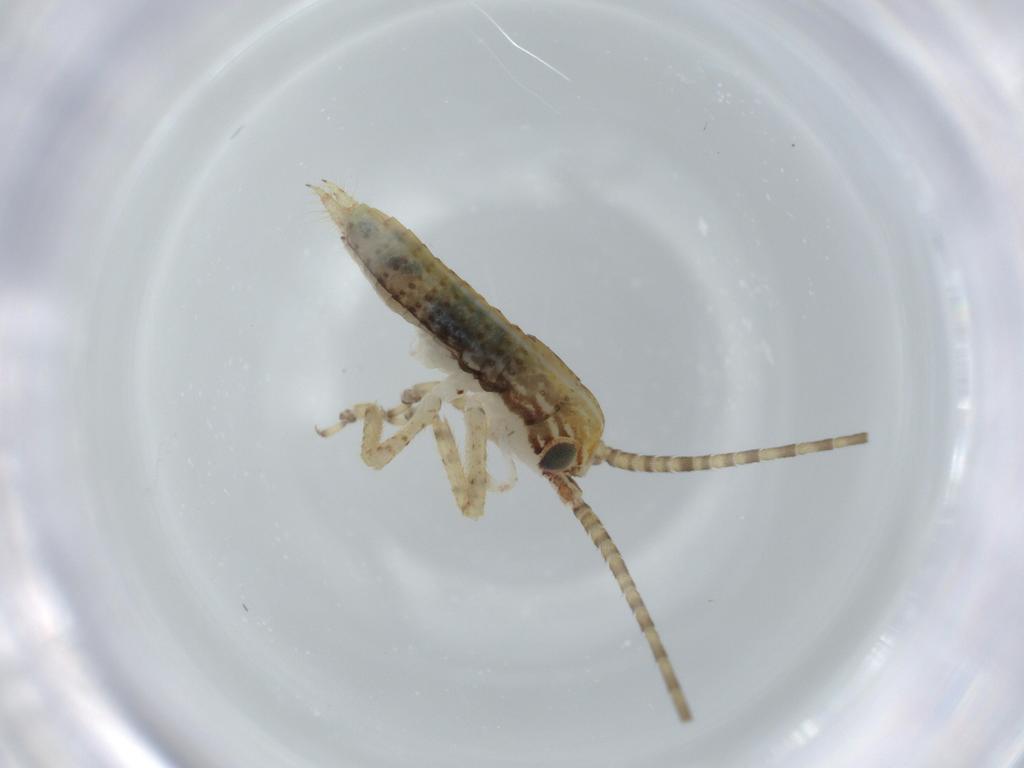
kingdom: Animalia
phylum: Arthropoda
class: Insecta
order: Orthoptera
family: Gryllidae
